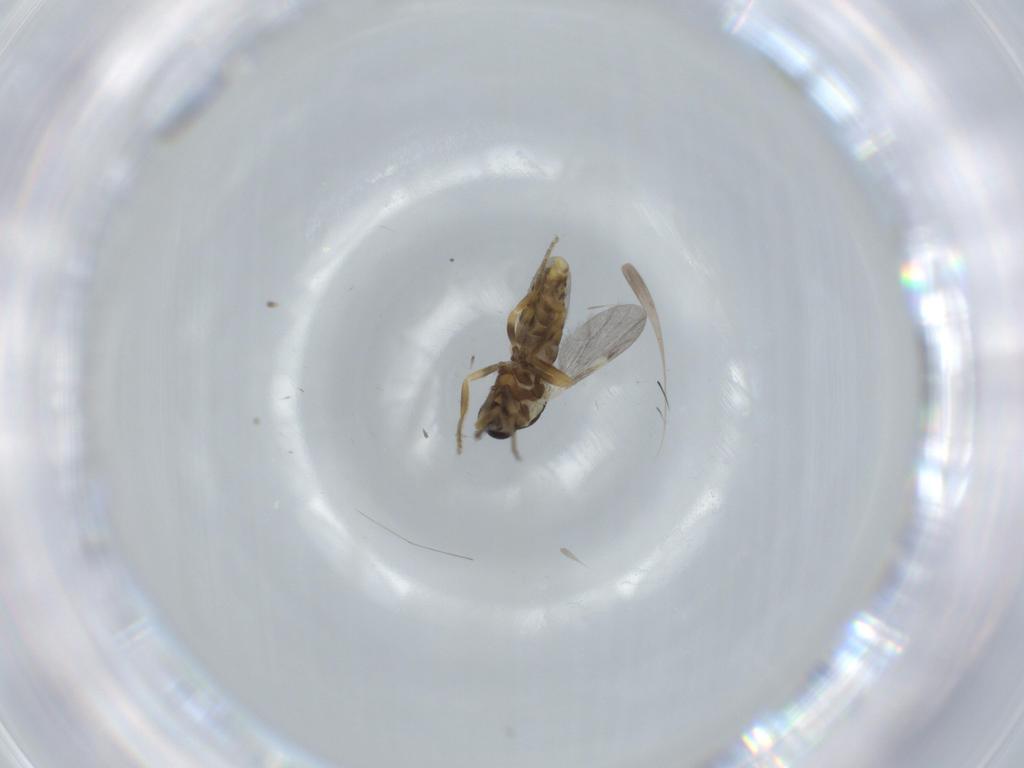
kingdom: Animalia
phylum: Arthropoda
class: Insecta
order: Diptera
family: Ceratopogonidae
